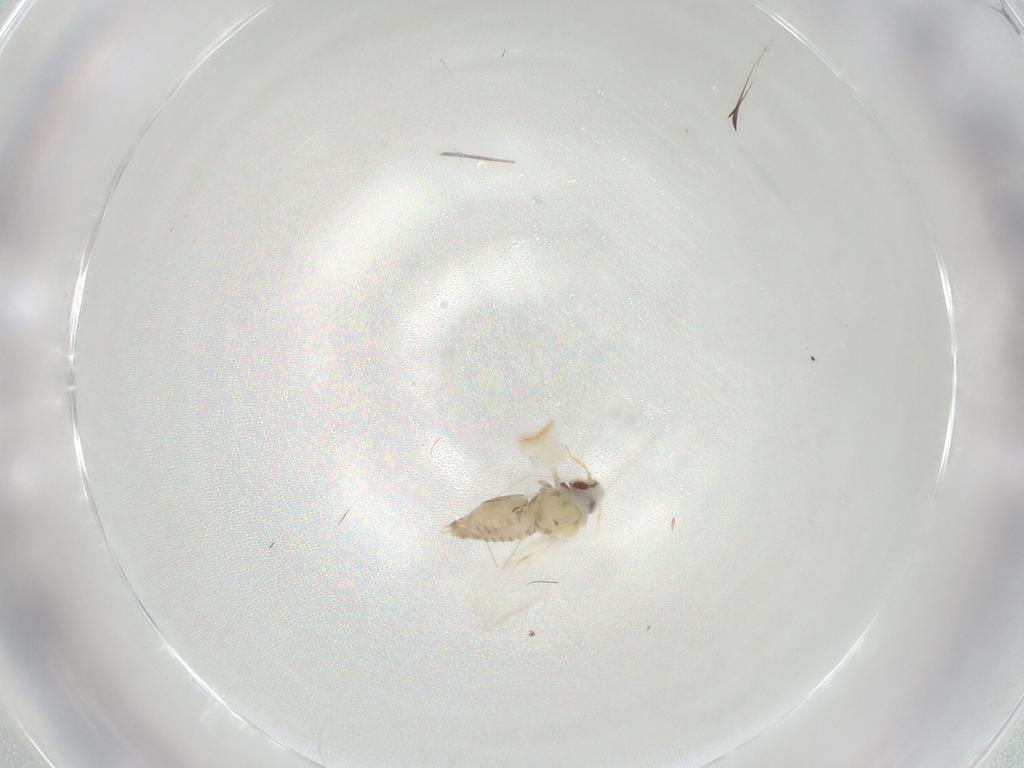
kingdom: Animalia
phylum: Arthropoda
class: Insecta
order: Hemiptera
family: Aleyrodidae
